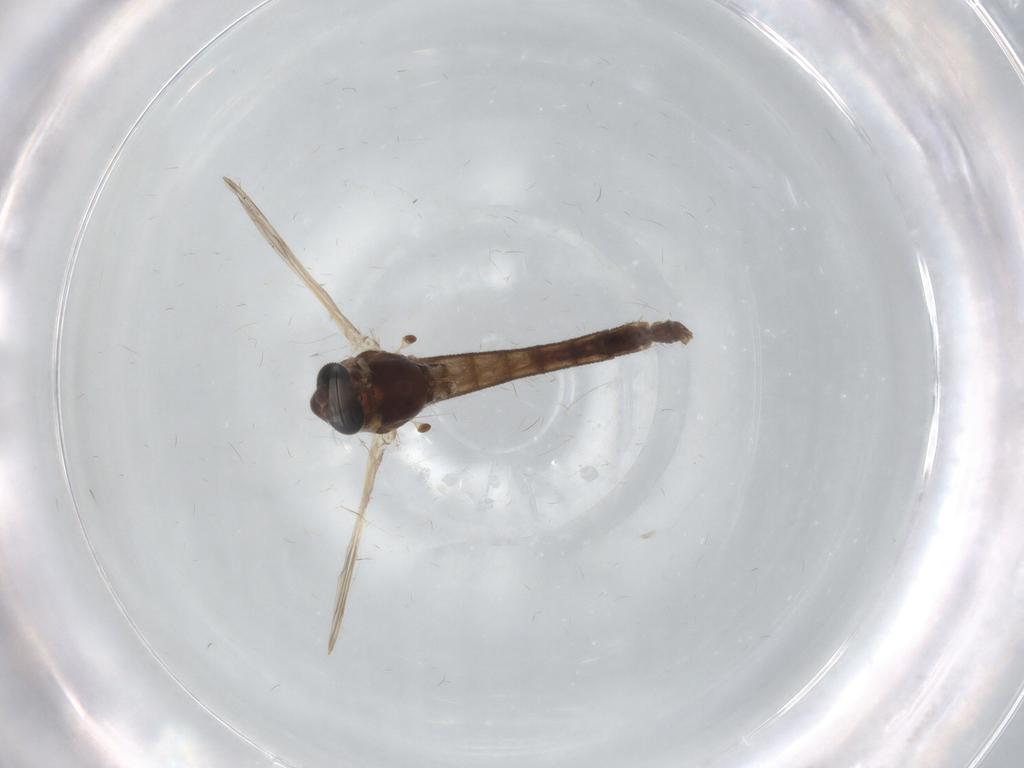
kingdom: Animalia
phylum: Arthropoda
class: Insecta
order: Diptera
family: Chironomidae
